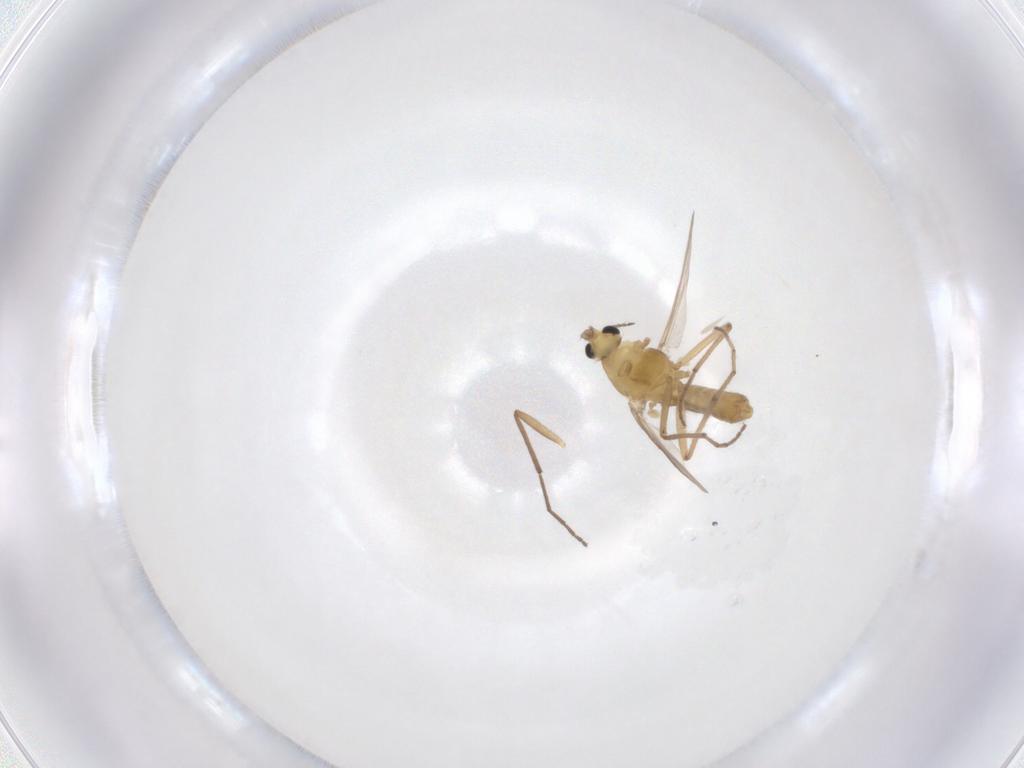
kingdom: Animalia
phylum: Arthropoda
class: Insecta
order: Diptera
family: Chironomidae
